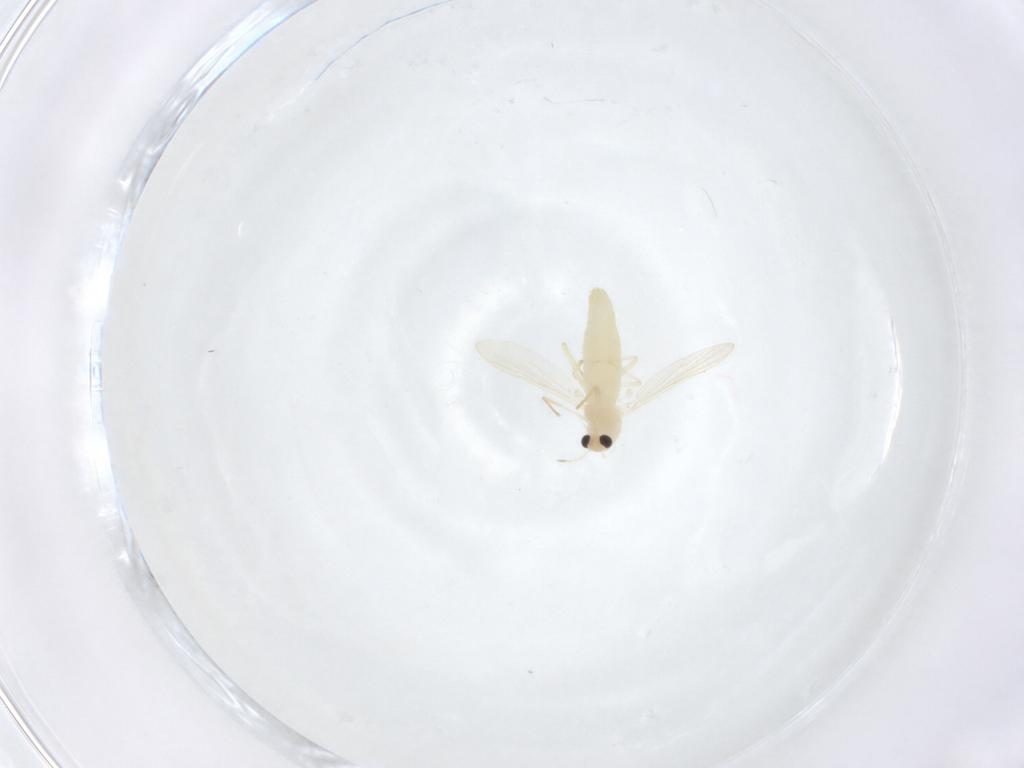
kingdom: Animalia
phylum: Arthropoda
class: Insecta
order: Diptera
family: Chironomidae
